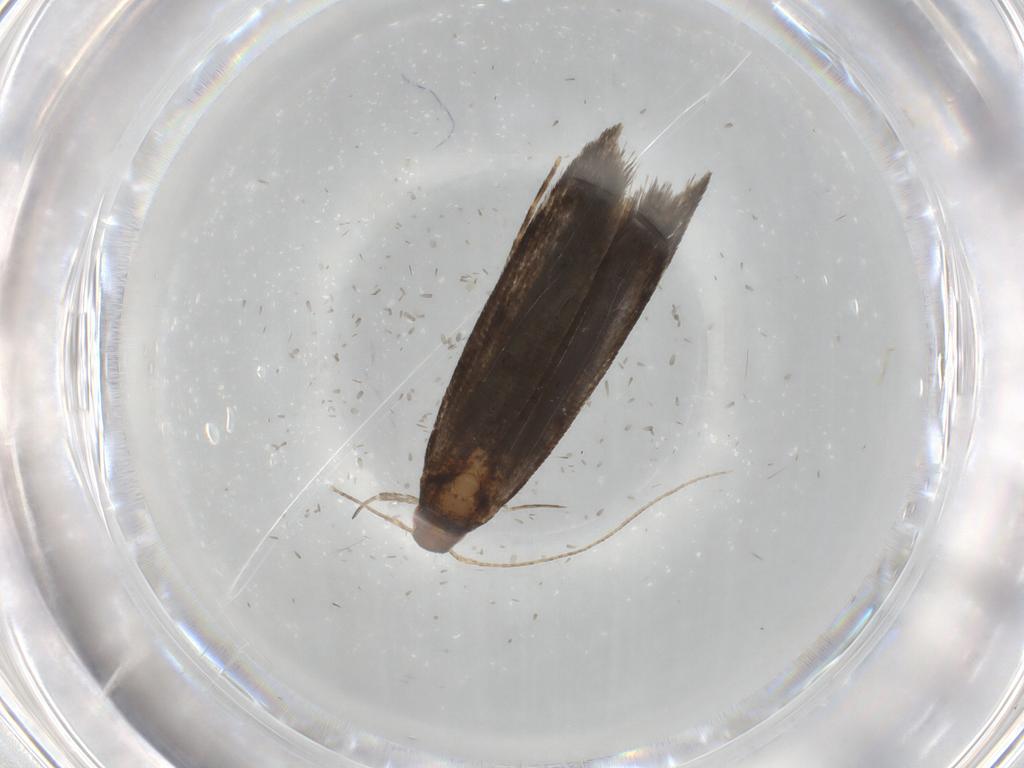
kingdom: Animalia
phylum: Arthropoda
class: Insecta
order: Lepidoptera
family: Gelechiidae
